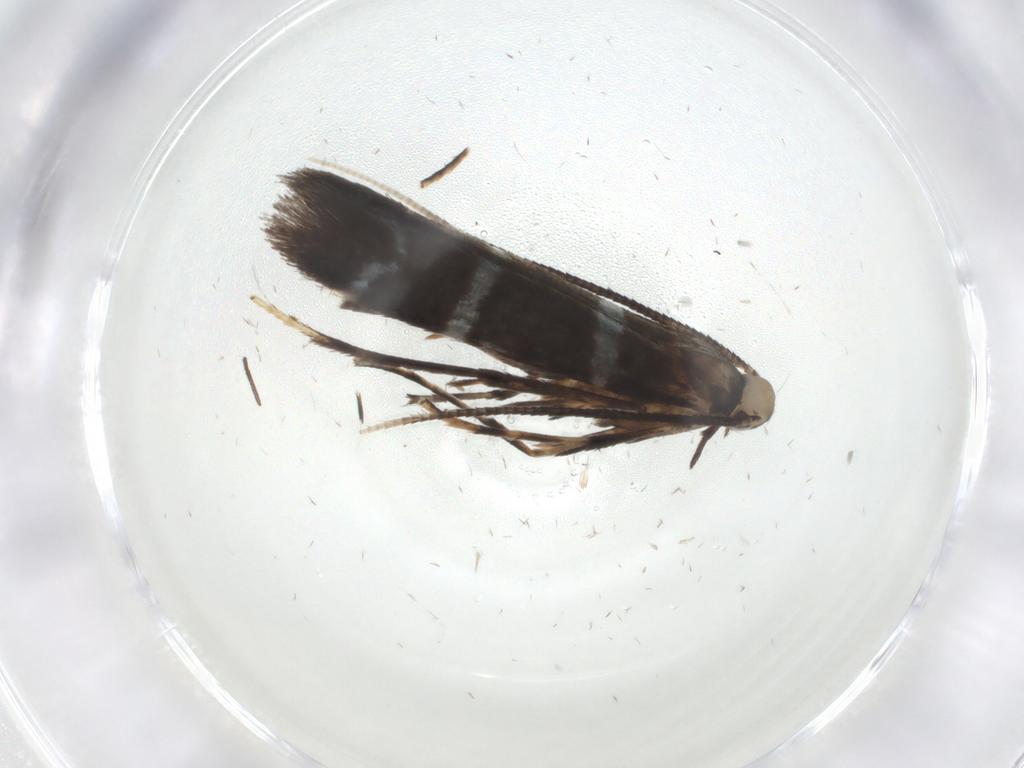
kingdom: Animalia
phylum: Arthropoda
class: Insecta
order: Lepidoptera
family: Gracillariidae
